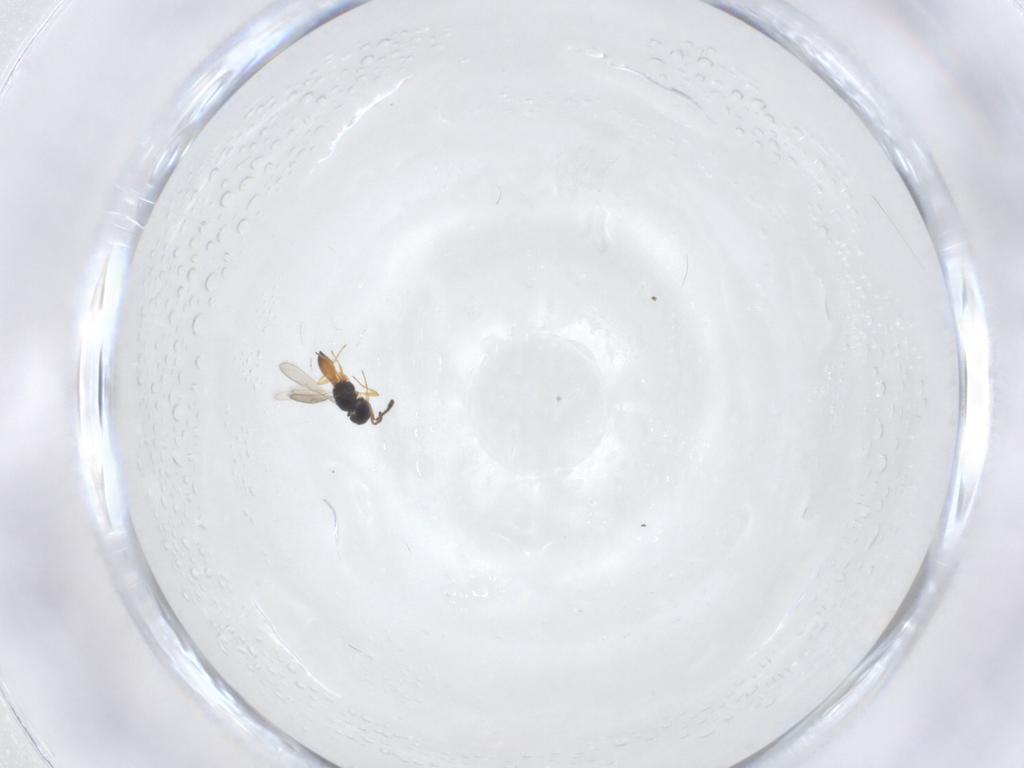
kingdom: Animalia
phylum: Arthropoda
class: Insecta
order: Hymenoptera
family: Scelionidae
